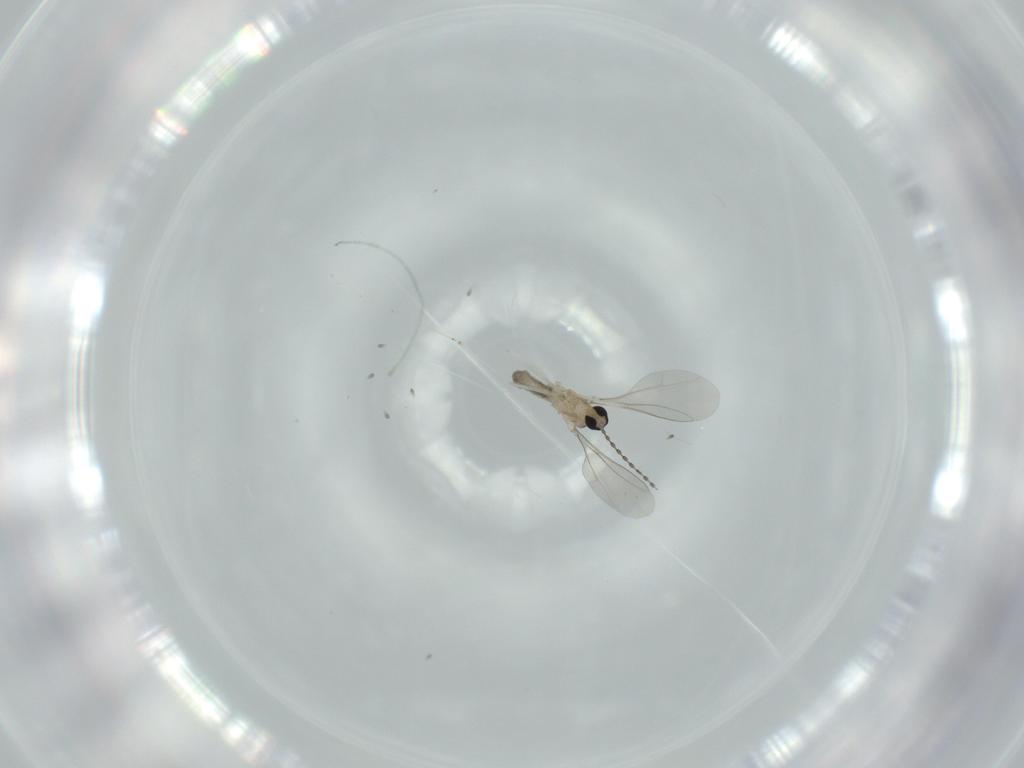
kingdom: Animalia
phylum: Arthropoda
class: Insecta
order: Diptera
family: Cecidomyiidae
